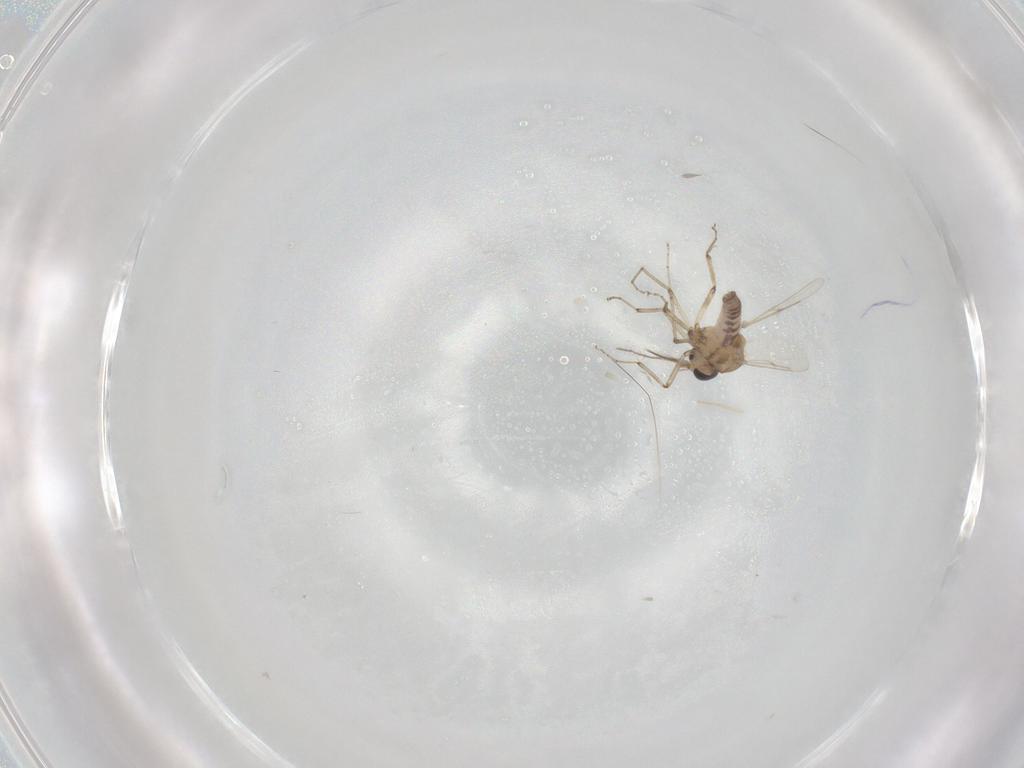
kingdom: Animalia
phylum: Arthropoda
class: Insecta
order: Diptera
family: Ceratopogonidae
